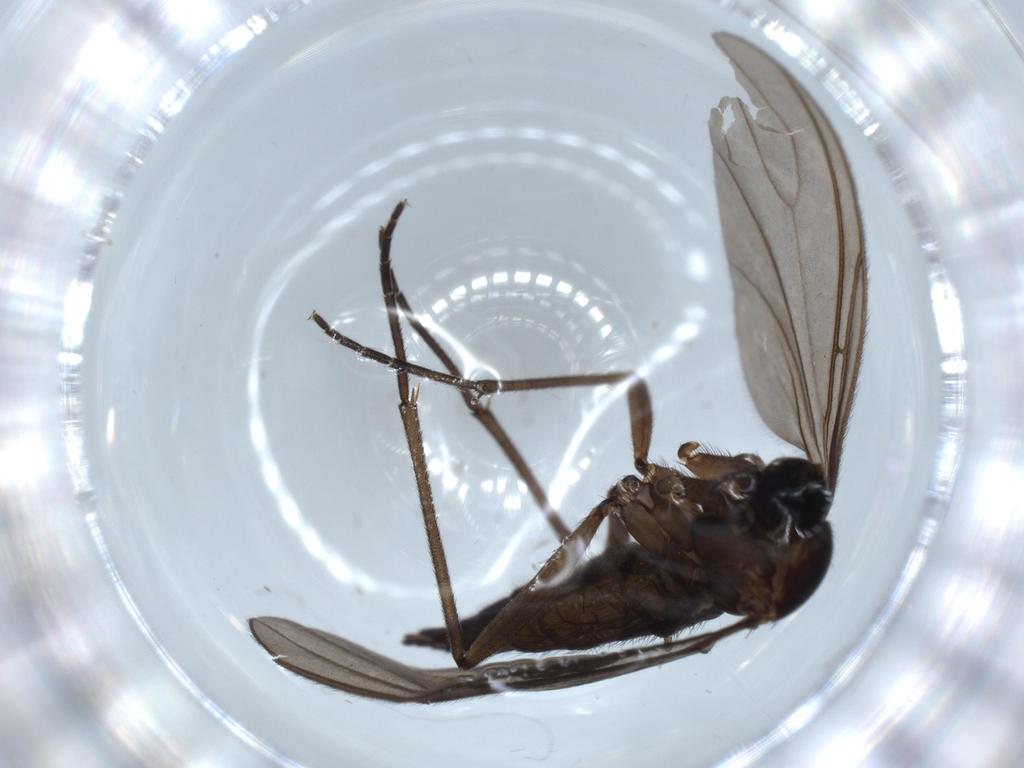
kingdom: Animalia
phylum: Arthropoda
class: Insecta
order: Diptera
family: Sciaridae
